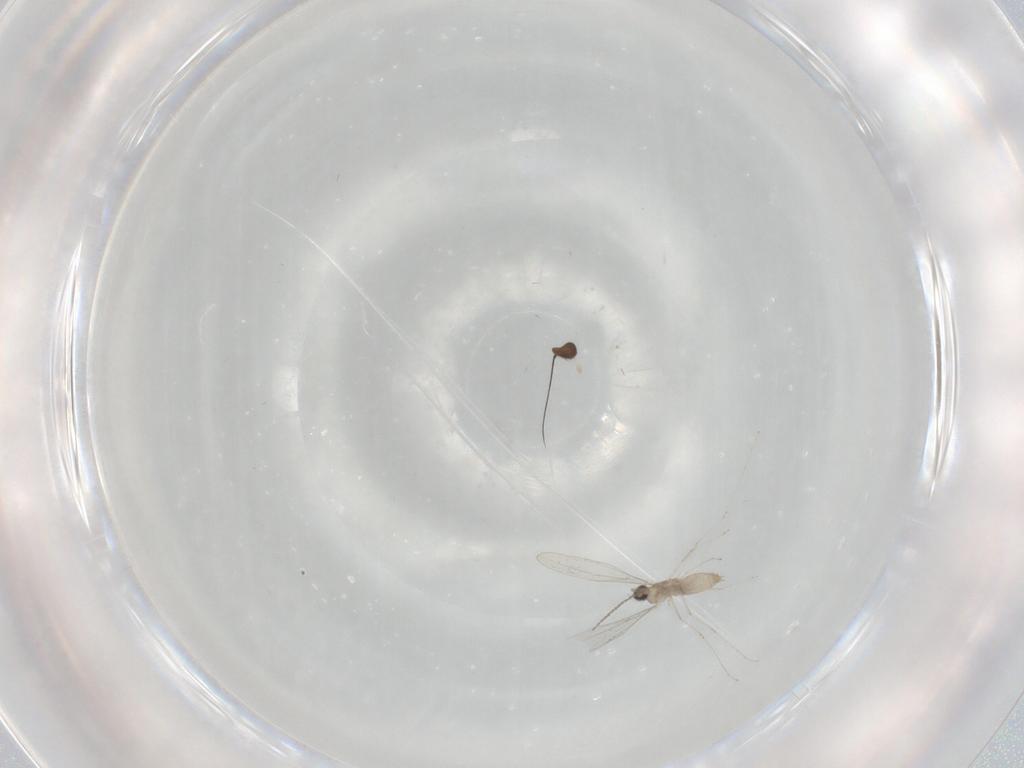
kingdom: Animalia
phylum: Arthropoda
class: Insecta
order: Diptera
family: Cecidomyiidae
